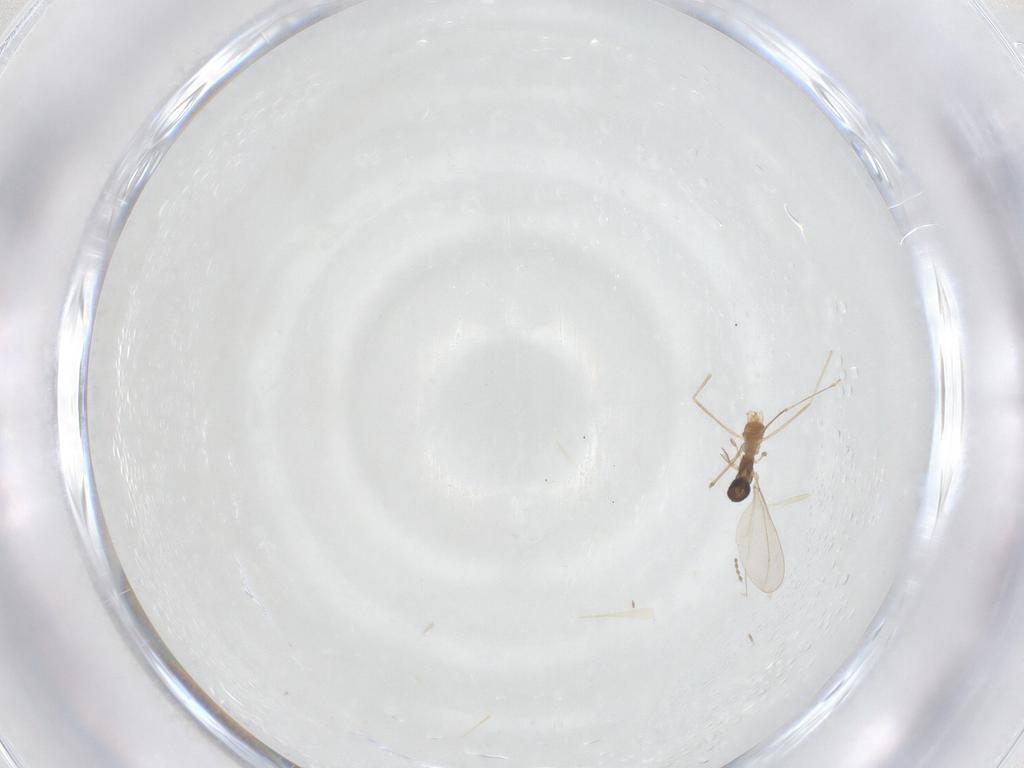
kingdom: Animalia
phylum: Arthropoda
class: Insecta
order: Diptera
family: Cecidomyiidae
